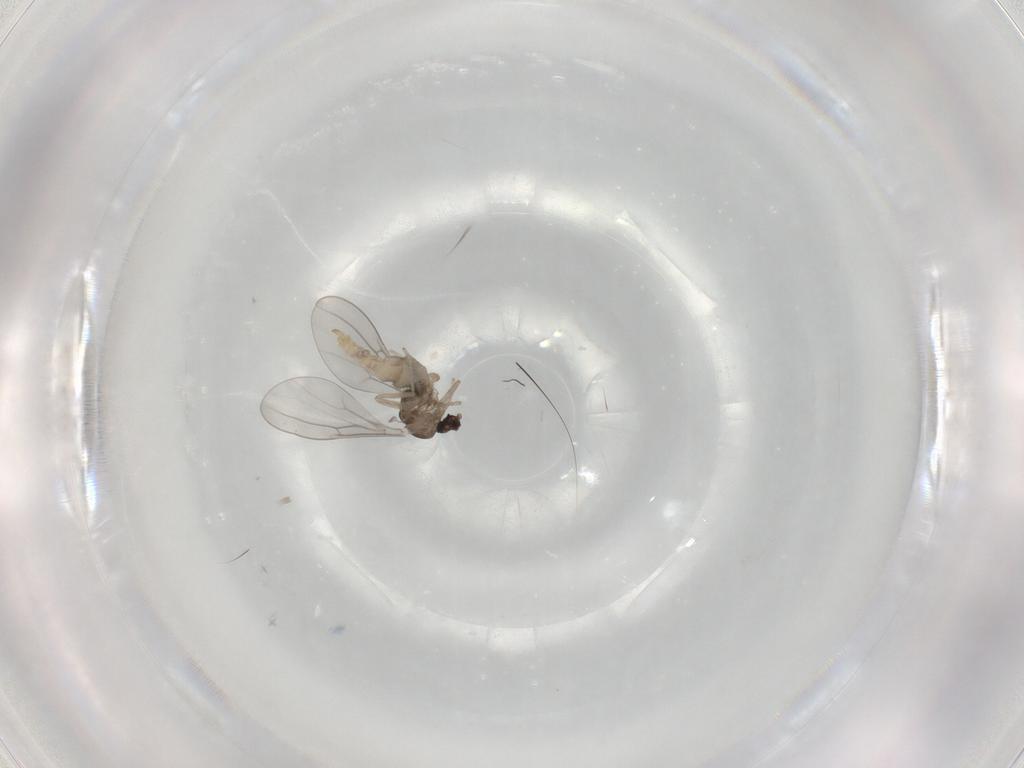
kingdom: Animalia
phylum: Arthropoda
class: Insecta
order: Diptera
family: Cecidomyiidae
